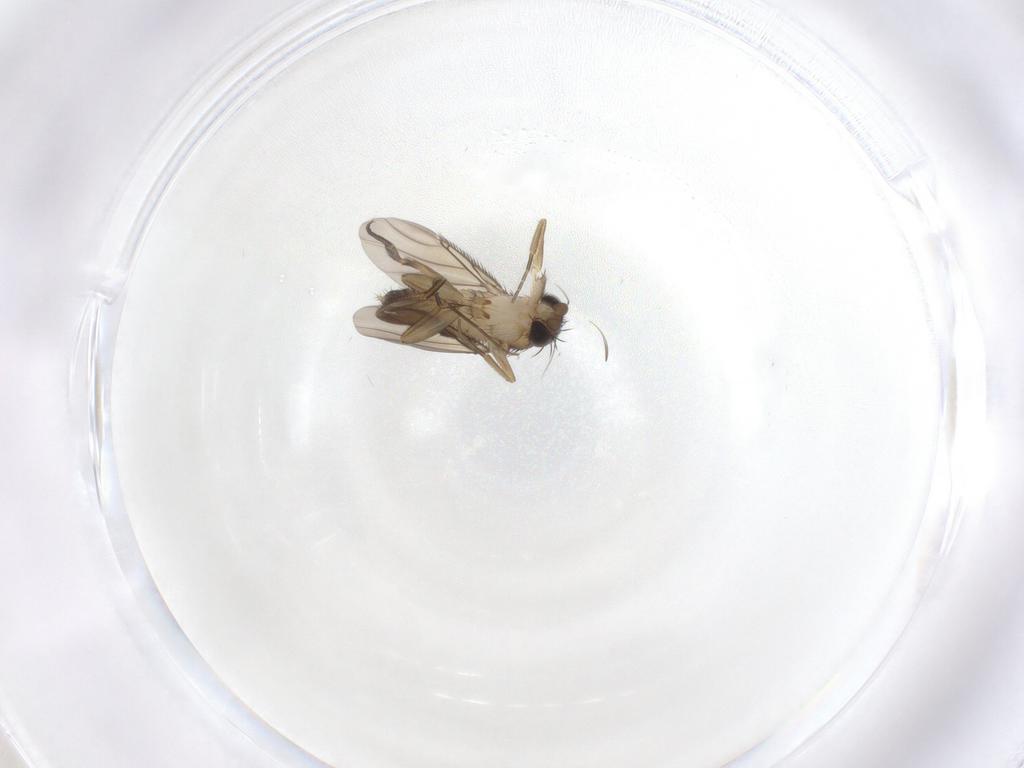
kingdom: Animalia
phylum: Arthropoda
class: Insecta
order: Diptera
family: Phoridae
